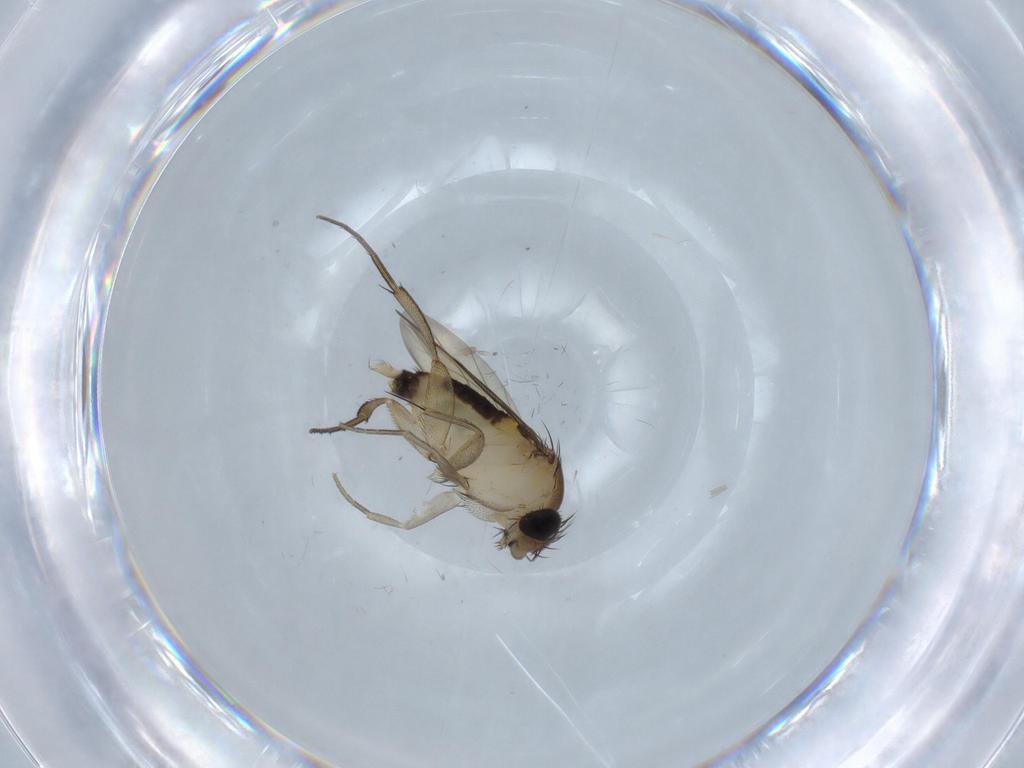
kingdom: Animalia
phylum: Arthropoda
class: Insecta
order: Diptera
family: Phoridae
